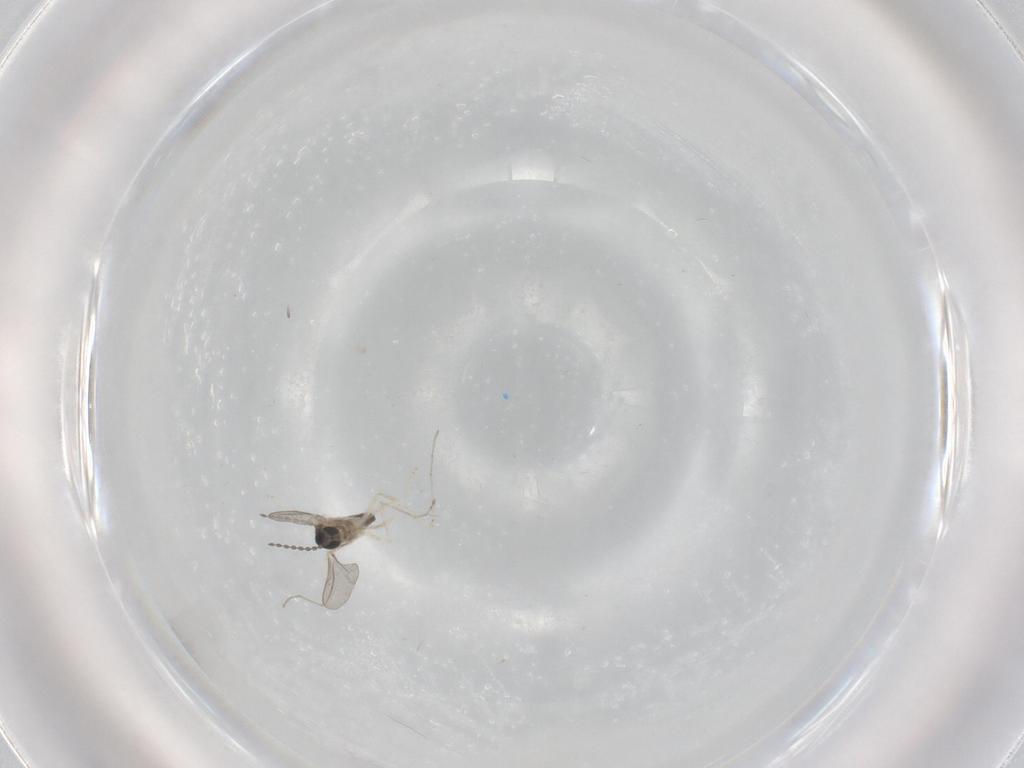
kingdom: Animalia
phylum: Arthropoda
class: Insecta
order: Diptera
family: Cecidomyiidae
